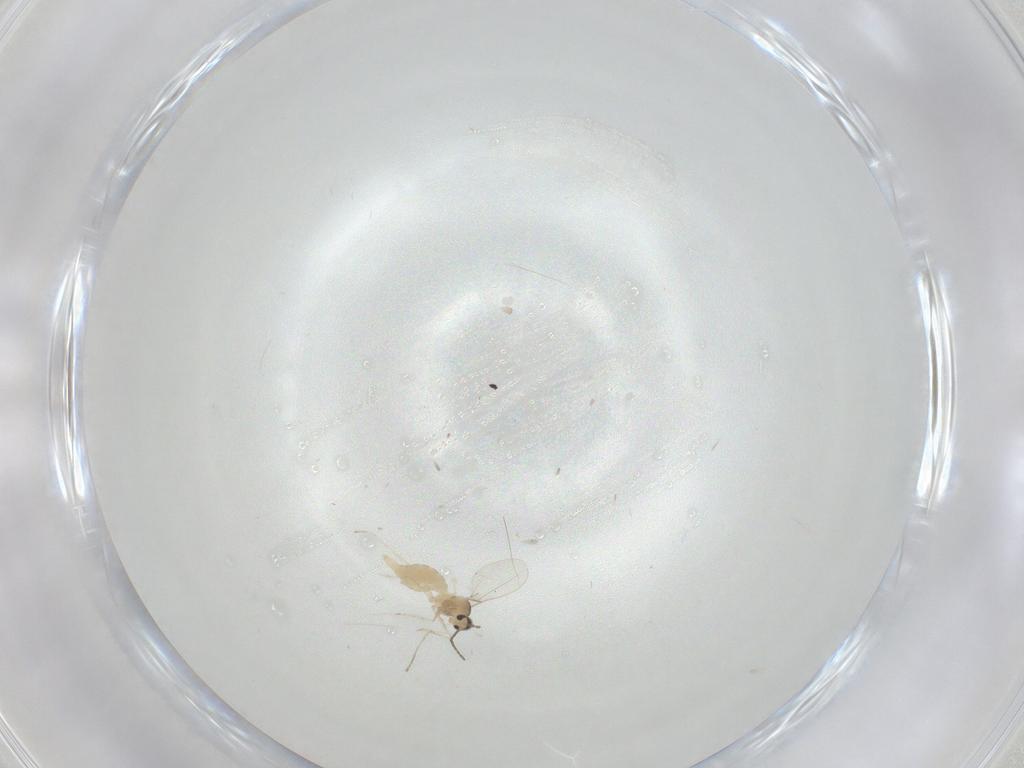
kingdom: Animalia
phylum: Arthropoda
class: Insecta
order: Diptera
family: Cecidomyiidae
